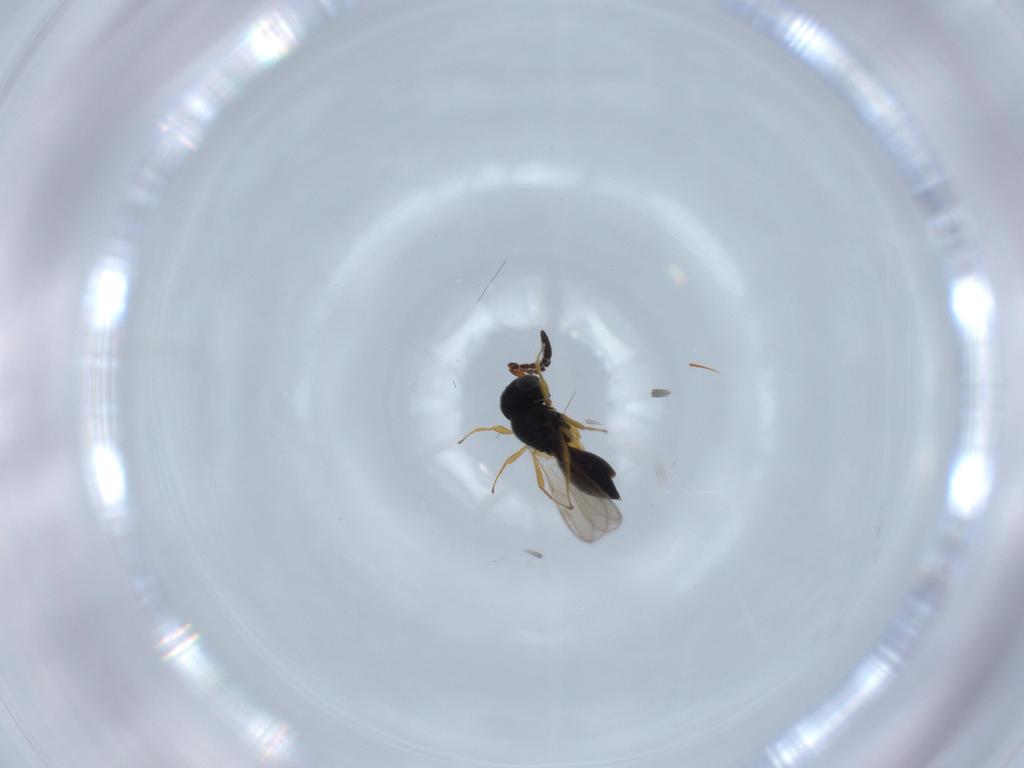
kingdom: Animalia
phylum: Arthropoda
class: Insecta
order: Hymenoptera
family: Scelionidae
